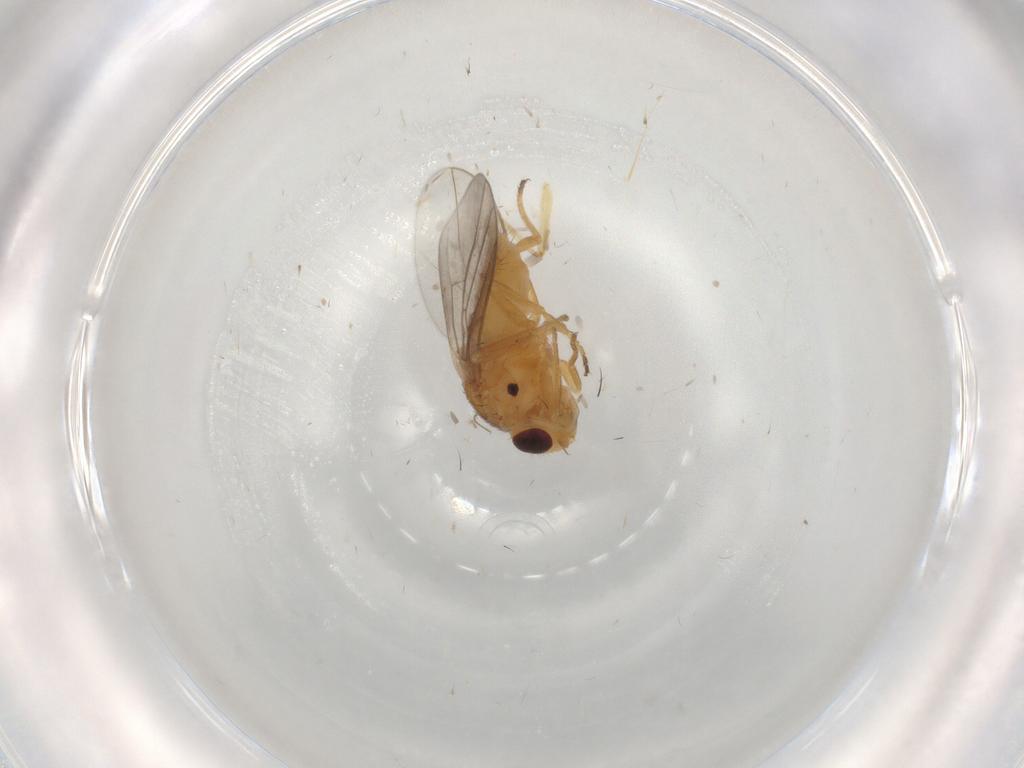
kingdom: Animalia
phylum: Arthropoda
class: Insecta
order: Diptera
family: Chloropidae
